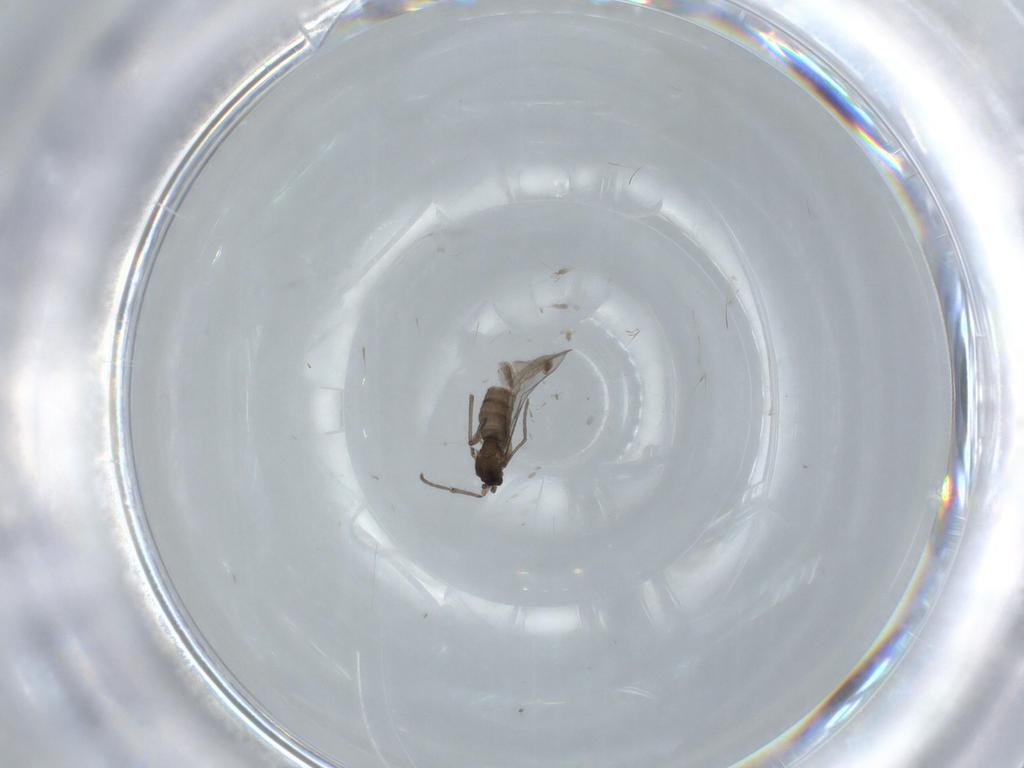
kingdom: Animalia
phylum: Arthropoda
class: Insecta
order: Diptera
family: Sciaridae
